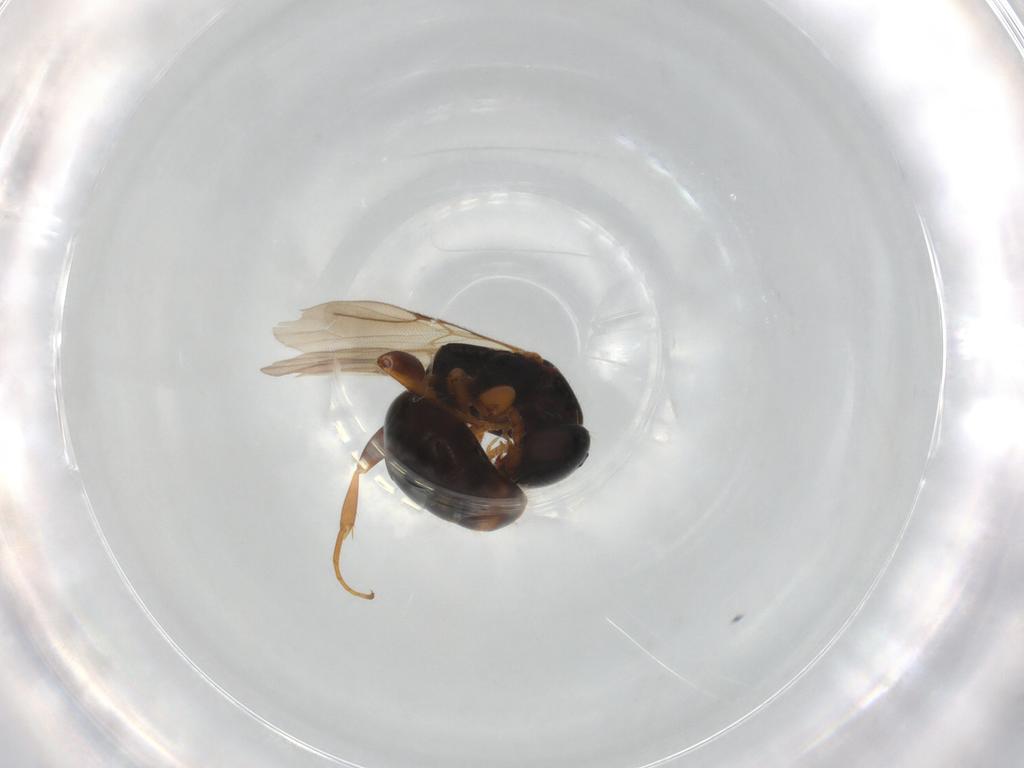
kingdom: Animalia
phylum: Arthropoda
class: Insecta
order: Hymenoptera
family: Bethylidae
